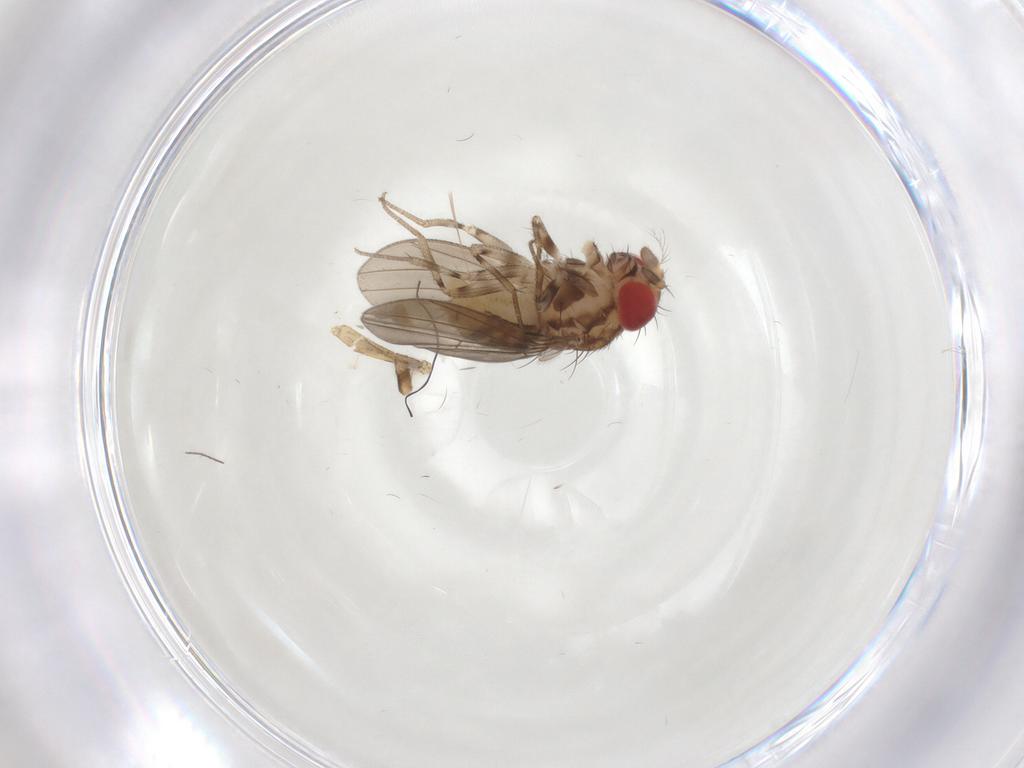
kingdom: Animalia
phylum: Arthropoda
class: Insecta
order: Diptera
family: Drosophilidae
